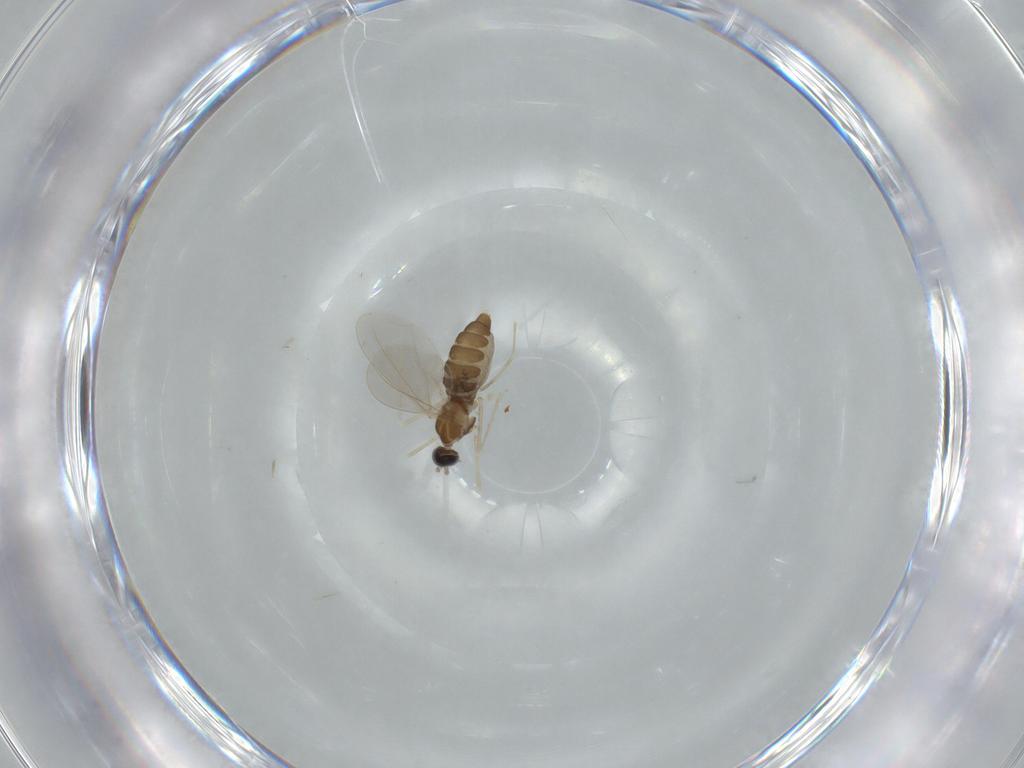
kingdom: Animalia
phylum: Arthropoda
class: Insecta
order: Diptera
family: Cecidomyiidae
